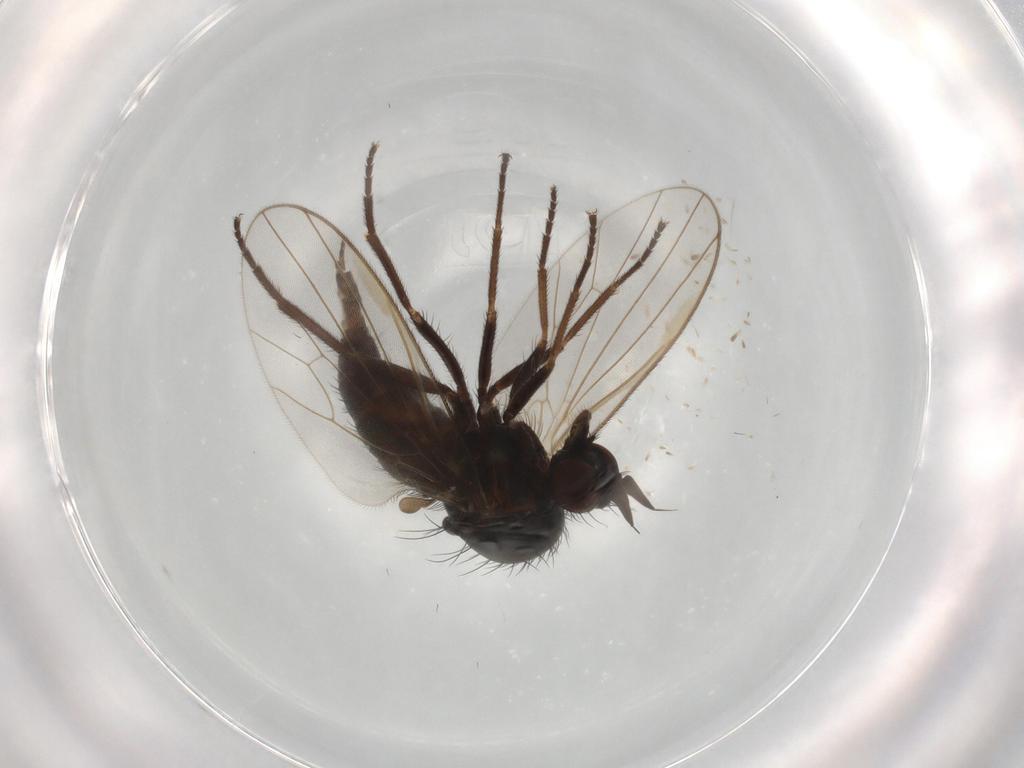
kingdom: Animalia
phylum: Arthropoda
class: Insecta
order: Diptera
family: Dolichopodidae
